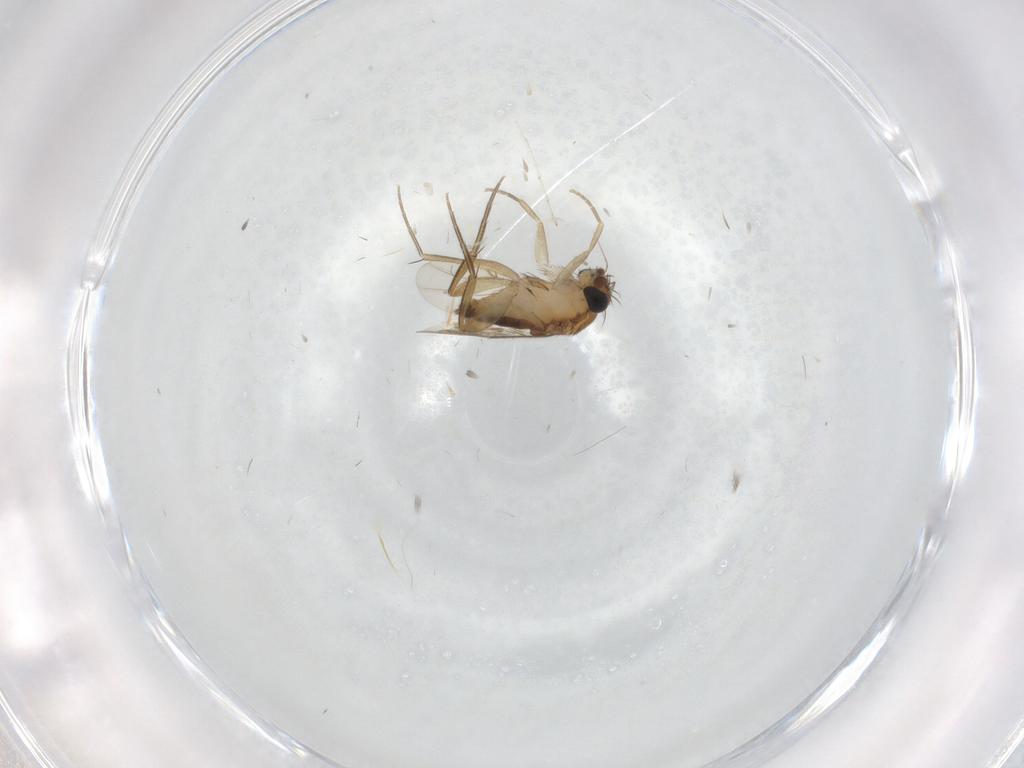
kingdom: Animalia
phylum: Arthropoda
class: Insecta
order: Diptera
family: Phoridae
